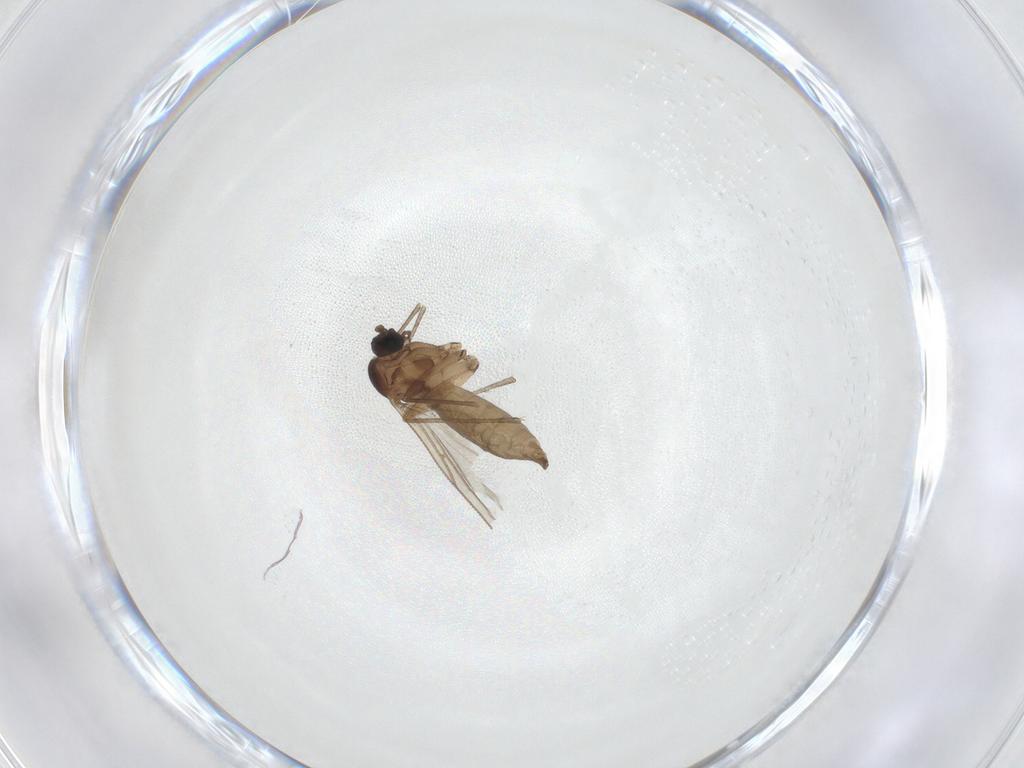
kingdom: Animalia
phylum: Arthropoda
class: Insecta
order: Diptera
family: Sciaridae
